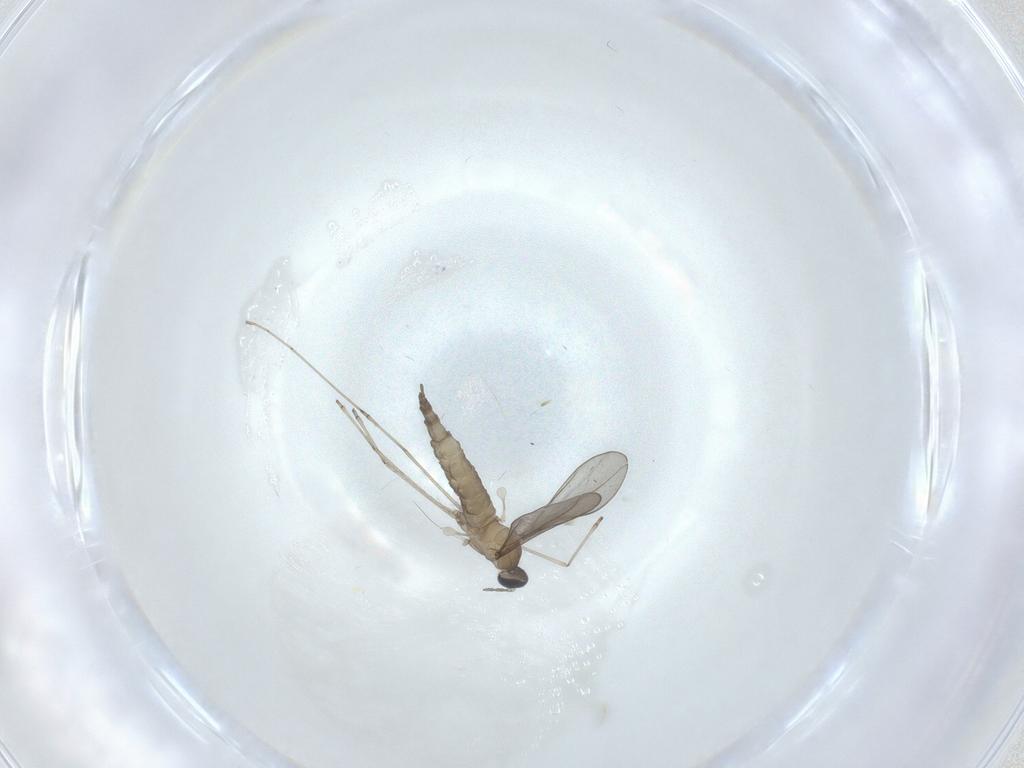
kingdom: Animalia
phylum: Arthropoda
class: Insecta
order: Diptera
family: Cecidomyiidae
